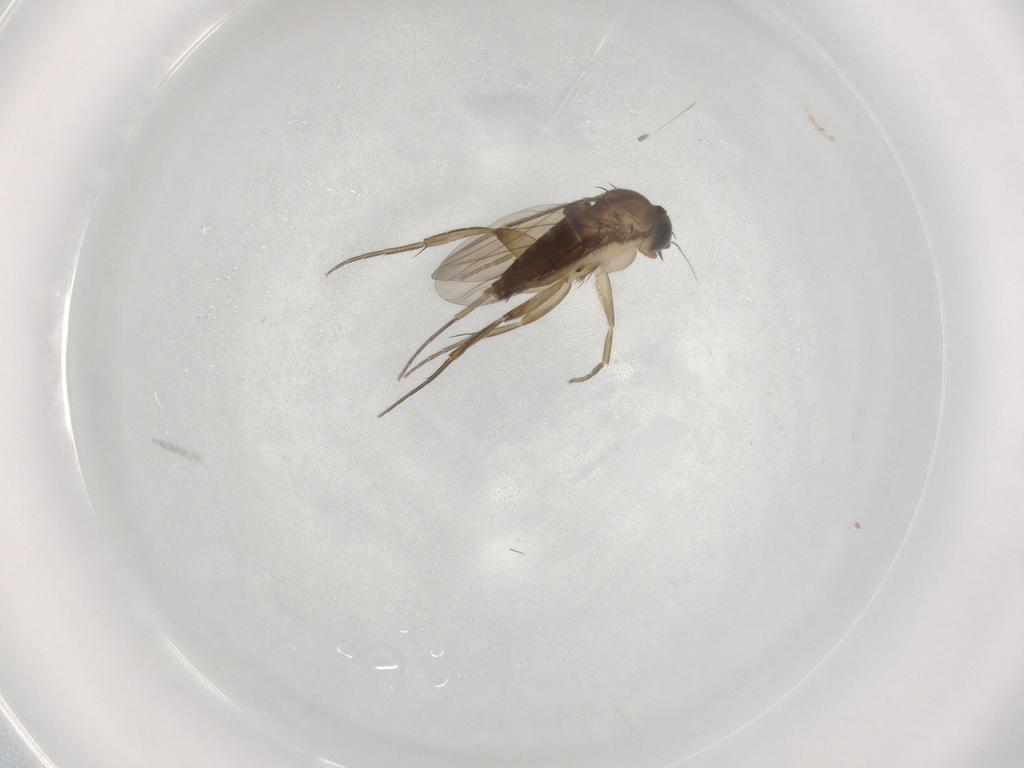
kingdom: Animalia
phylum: Arthropoda
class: Insecta
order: Diptera
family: Phoridae
